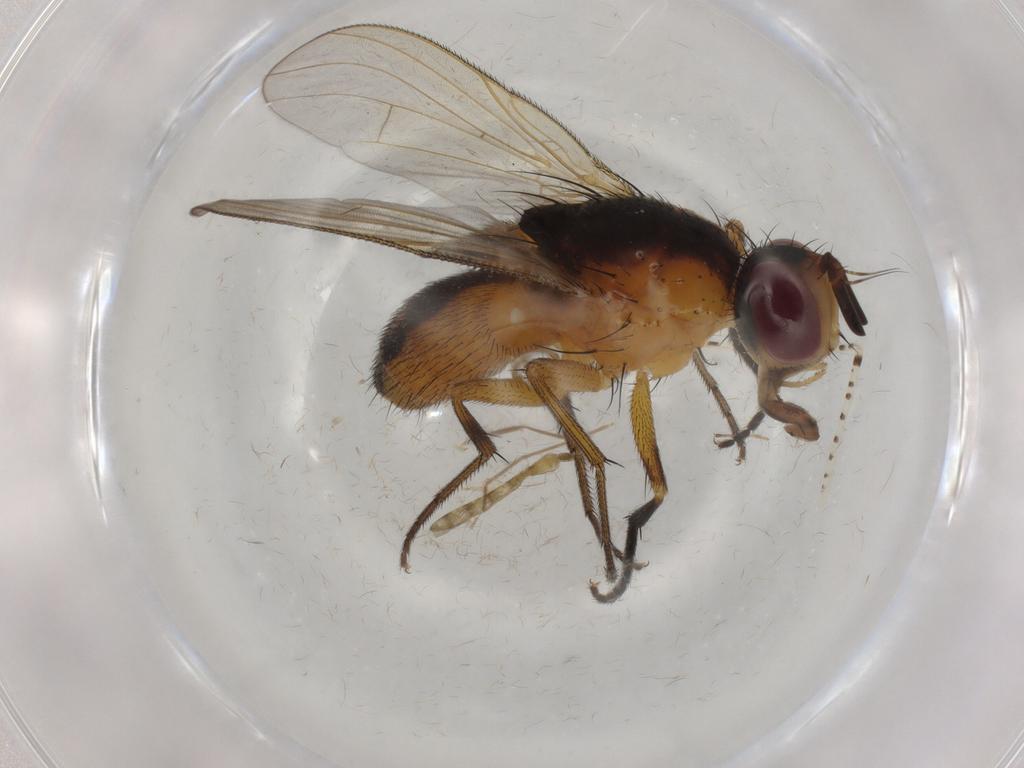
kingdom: Animalia
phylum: Arthropoda
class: Insecta
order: Diptera
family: Muscidae
